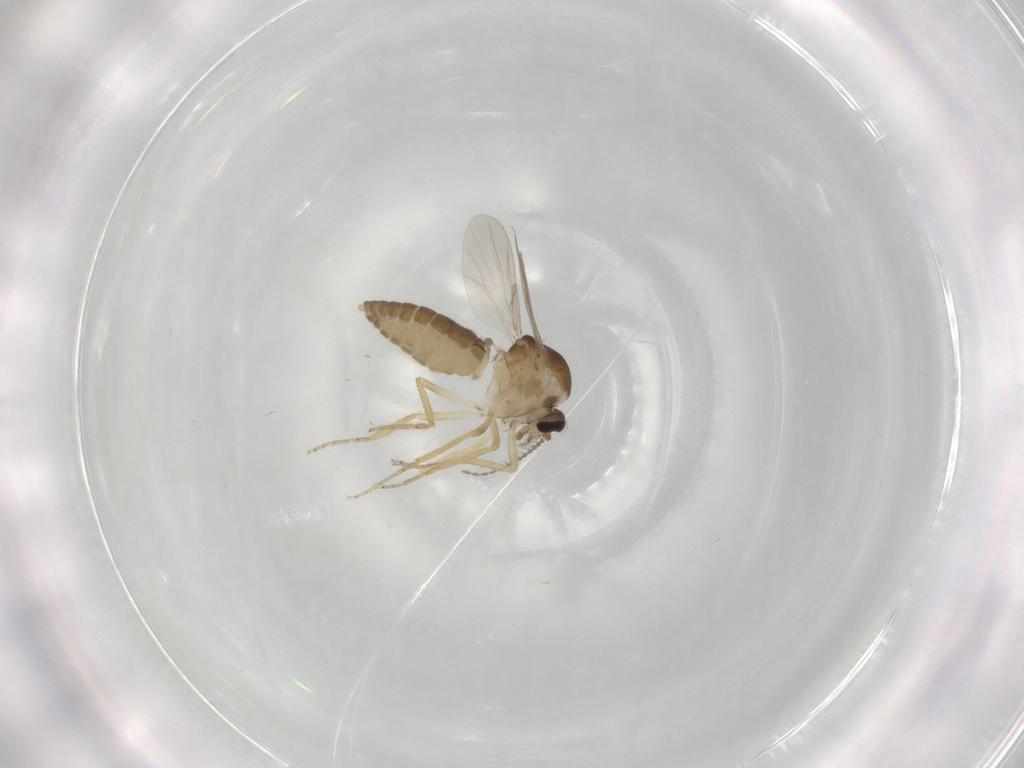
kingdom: Animalia
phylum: Arthropoda
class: Insecta
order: Diptera
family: Ceratopogonidae
